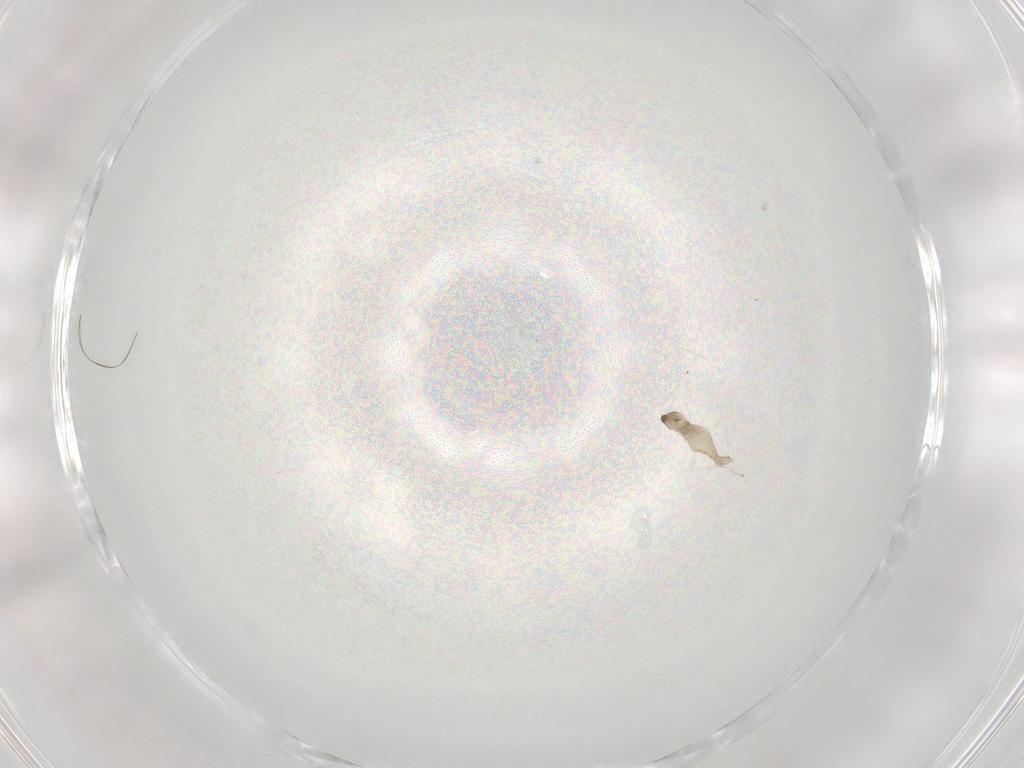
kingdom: Animalia
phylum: Arthropoda
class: Insecta
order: Diptera
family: Cecidomyiidae
